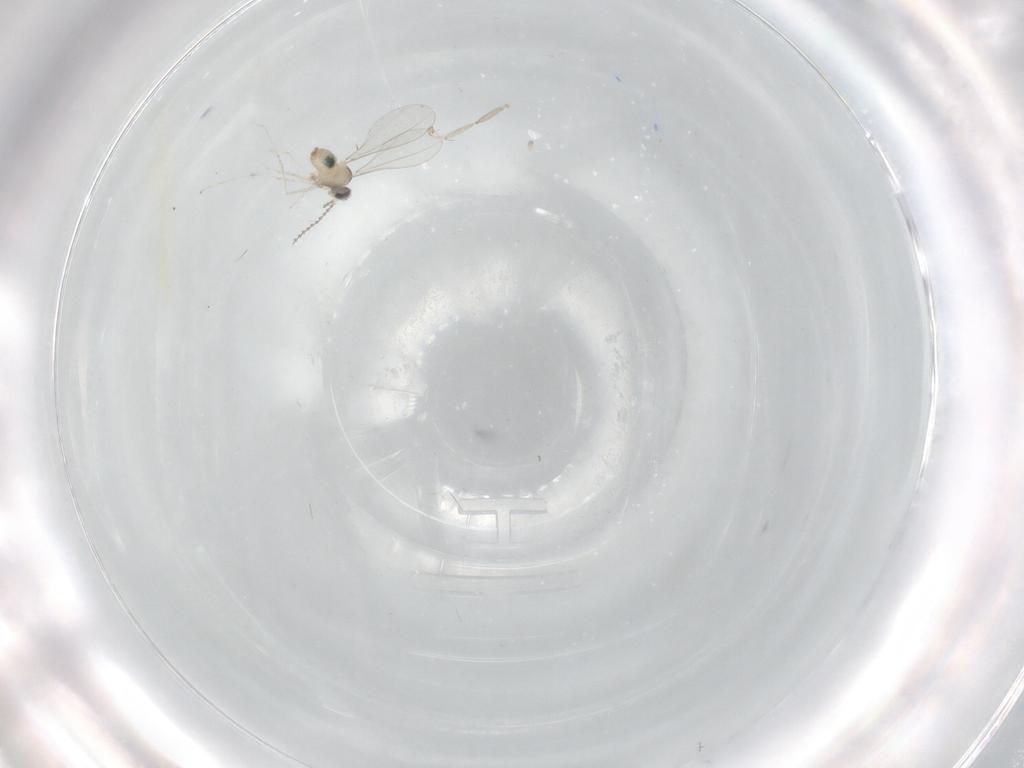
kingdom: Animalia
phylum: Arthropoda
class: Insecta
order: Diptera
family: Cecidomyiidae
